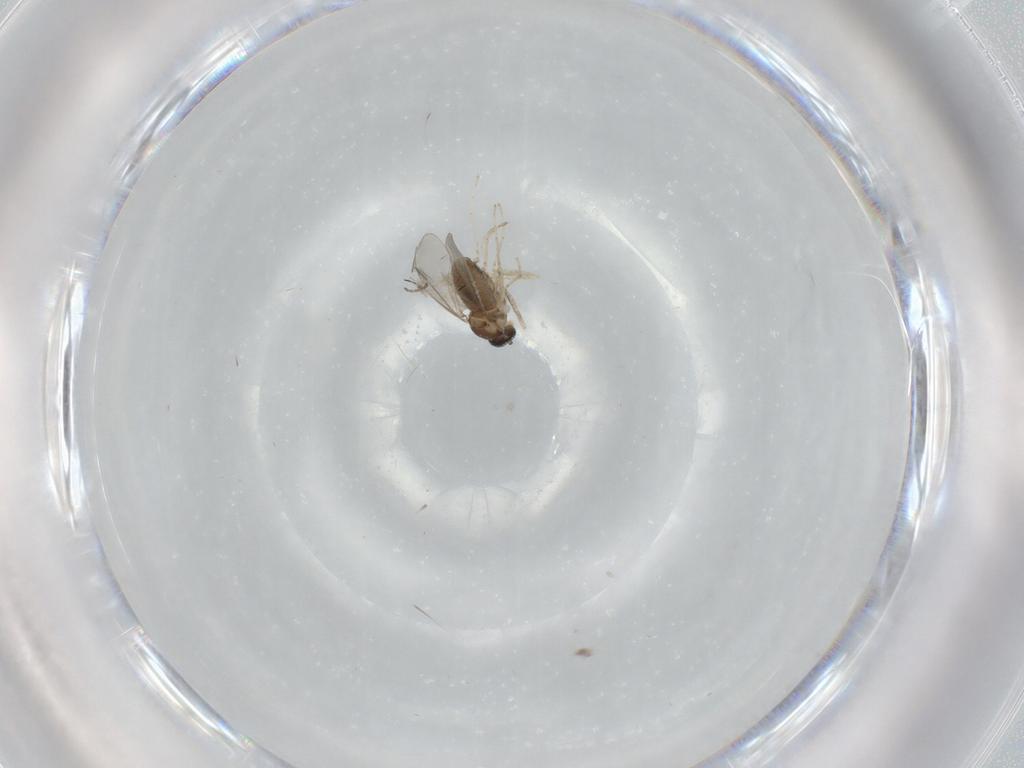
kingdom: Animalia
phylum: Arthropoda
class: Insecta
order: Diptera
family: Cecidomyiidae
